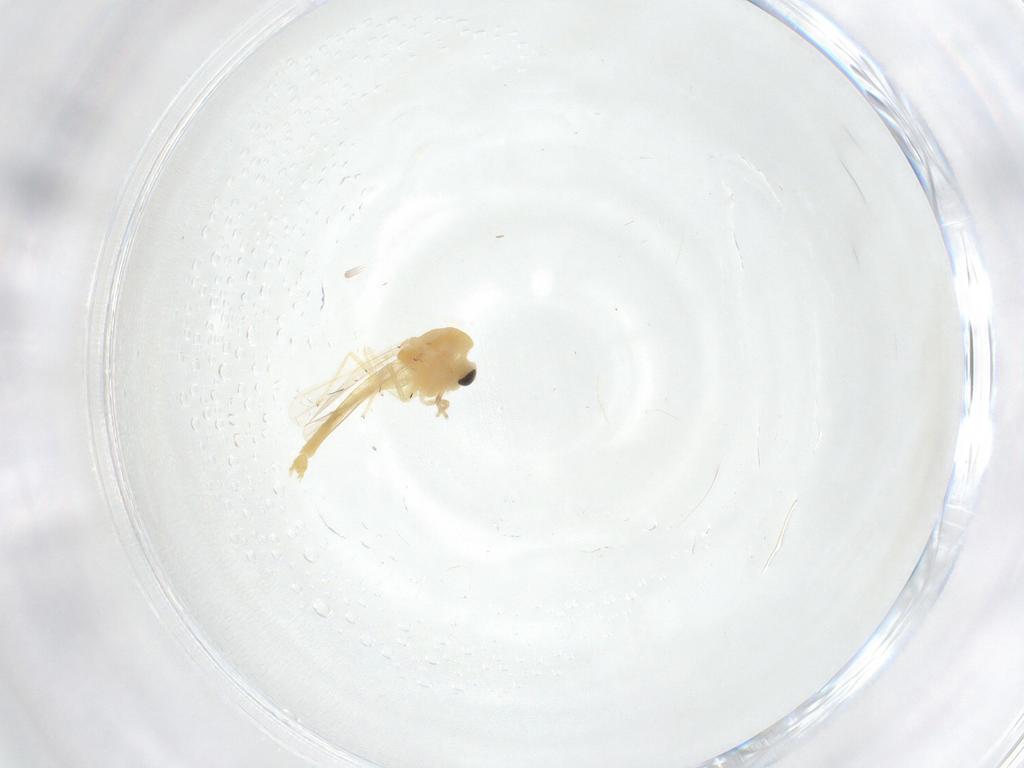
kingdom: Animalia
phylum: Arthropoda
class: Insecta
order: Diptera
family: Chironomidae
